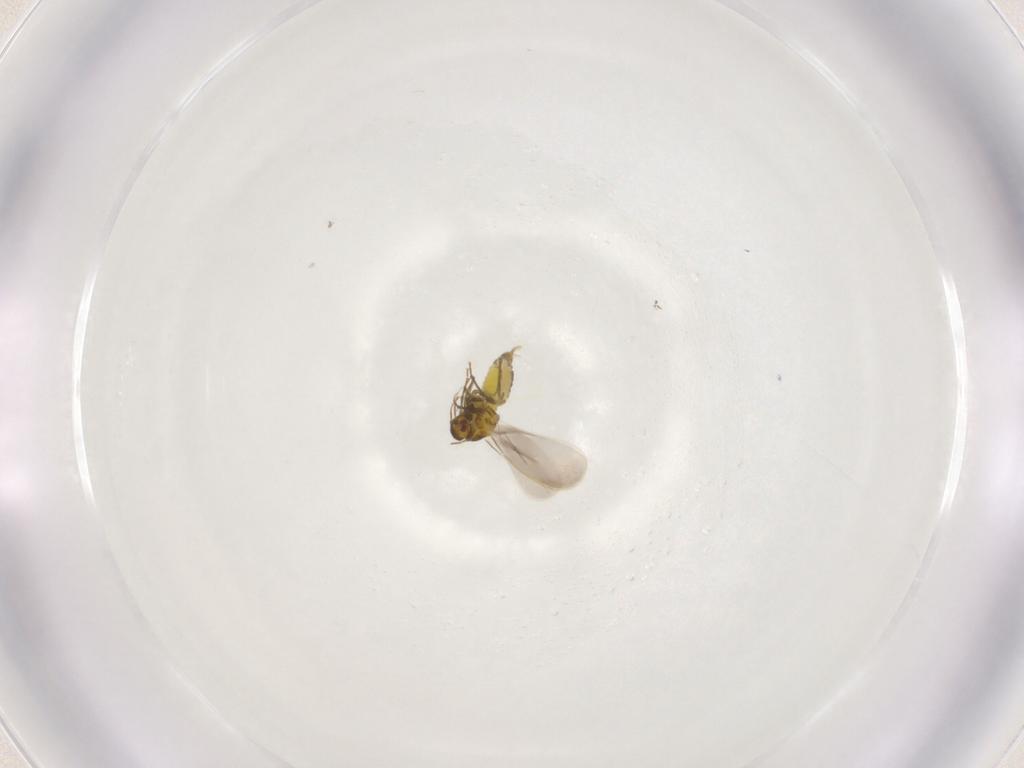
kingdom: Animalia
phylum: Arthropoda
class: Insecta
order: Hemiptera
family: Aleyrodidae
